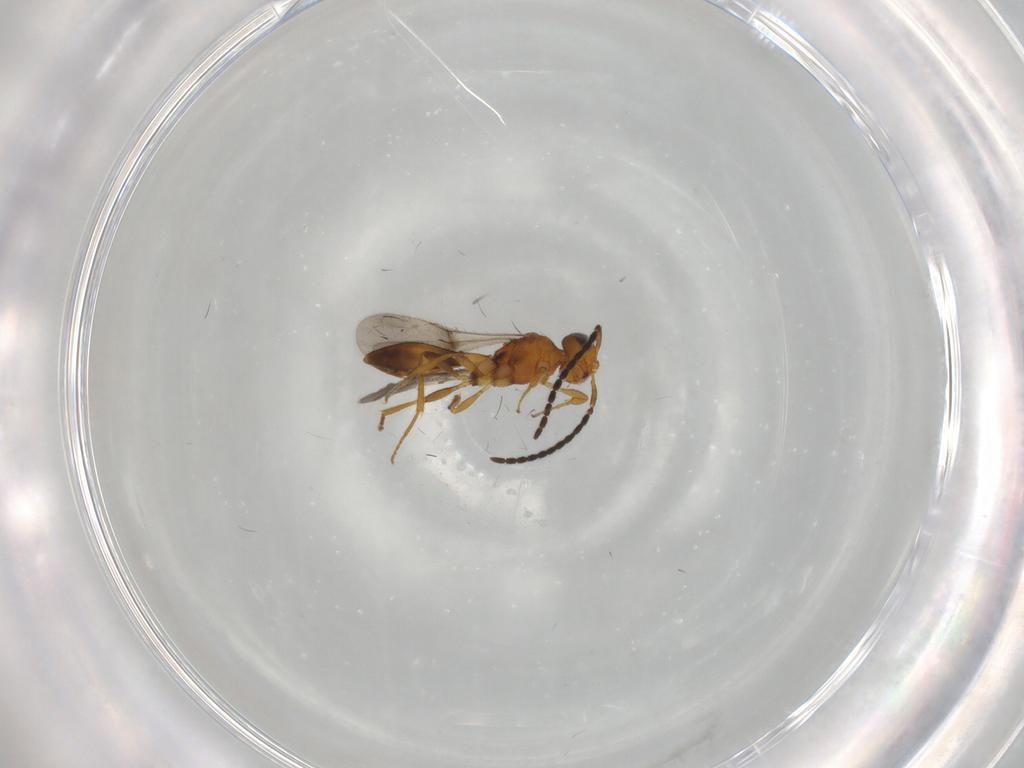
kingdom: Animalia
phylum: Arthropoda
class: Insecta
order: Hymenoptera
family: Scelionidae
